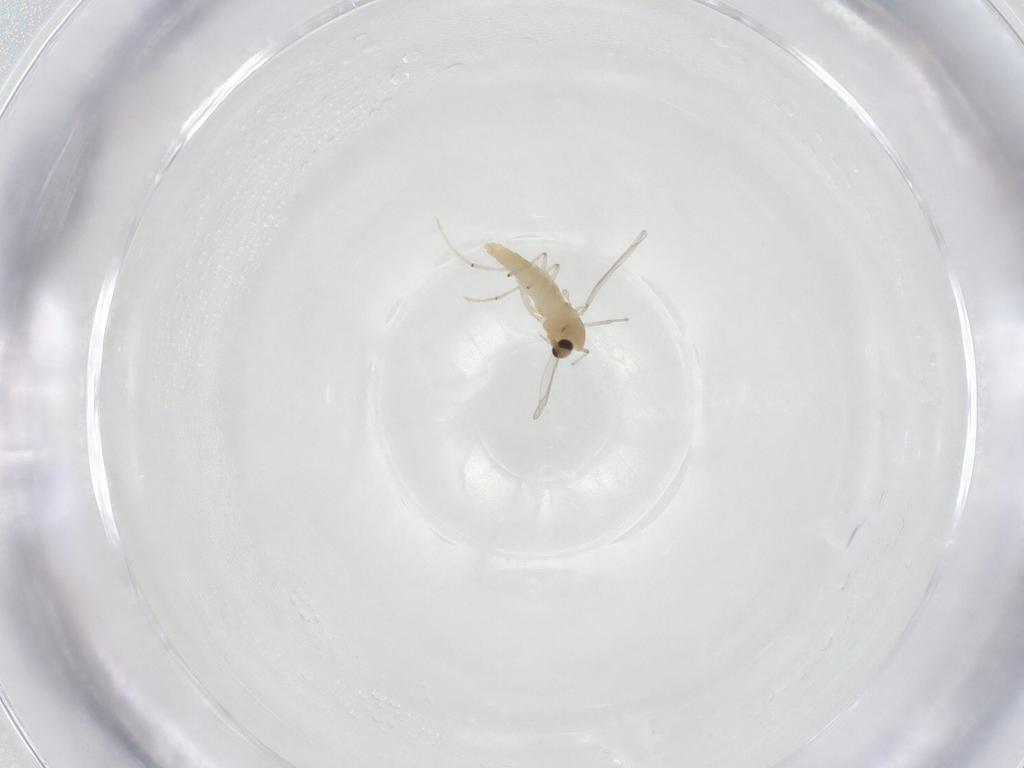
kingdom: Animalia
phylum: Arthropoda
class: Insecta
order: Diptera
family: Chironomidae
